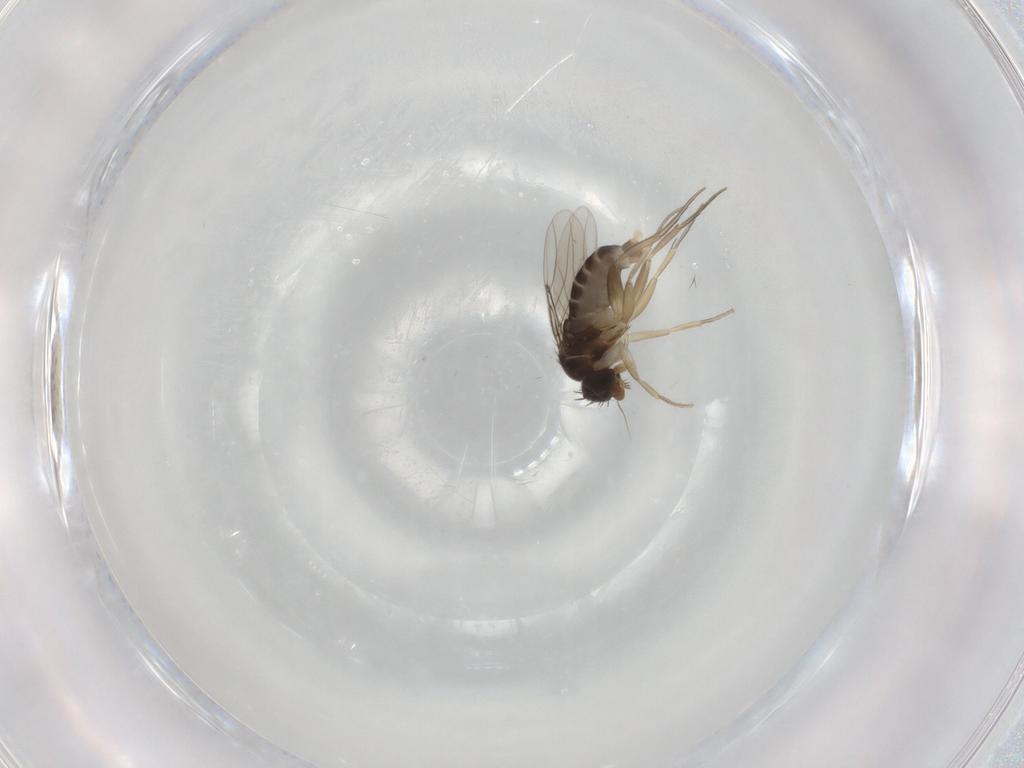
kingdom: Animalia
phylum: Arthropoda
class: Insecta
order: Diptera
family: Phoridae
